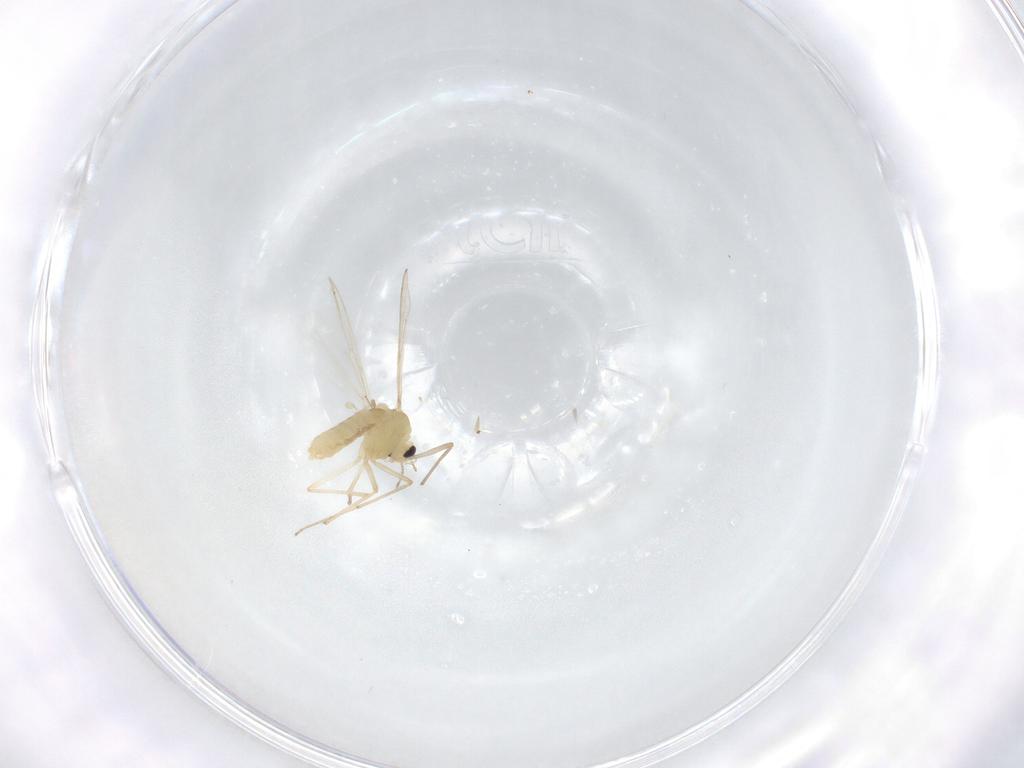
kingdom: Animalia
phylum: Arthropoda
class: Insecta
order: Diptera
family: Chironomidae
